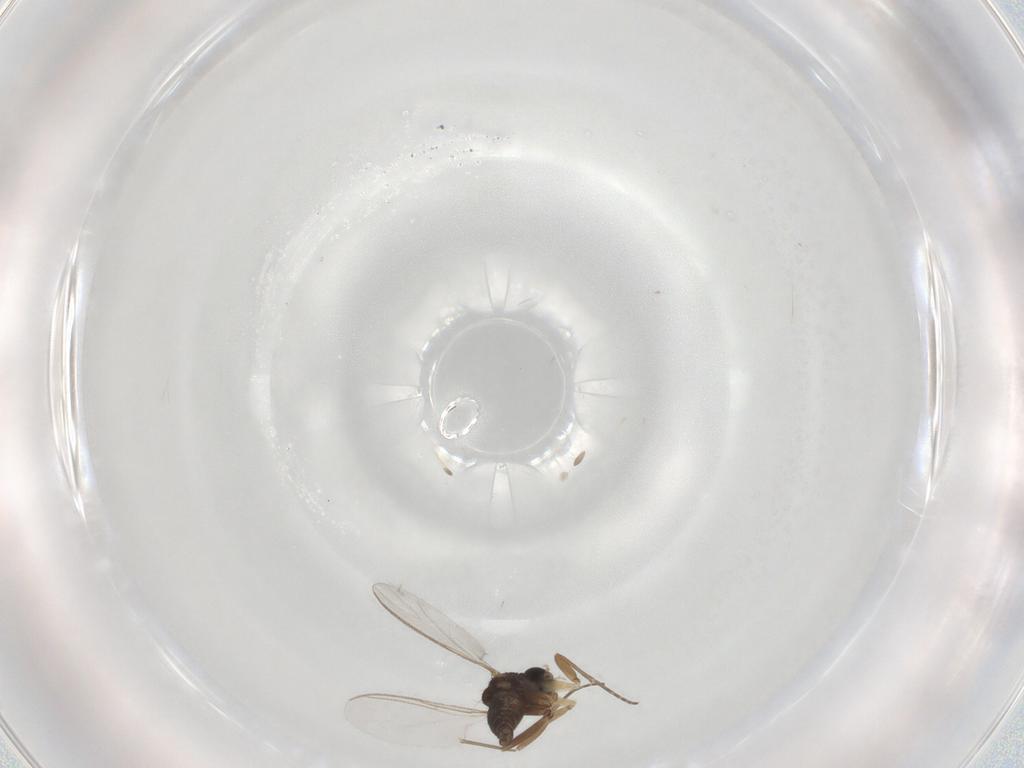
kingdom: Animalia
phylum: Arthropoda
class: Insecta
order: Diptera
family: Sciaridae
